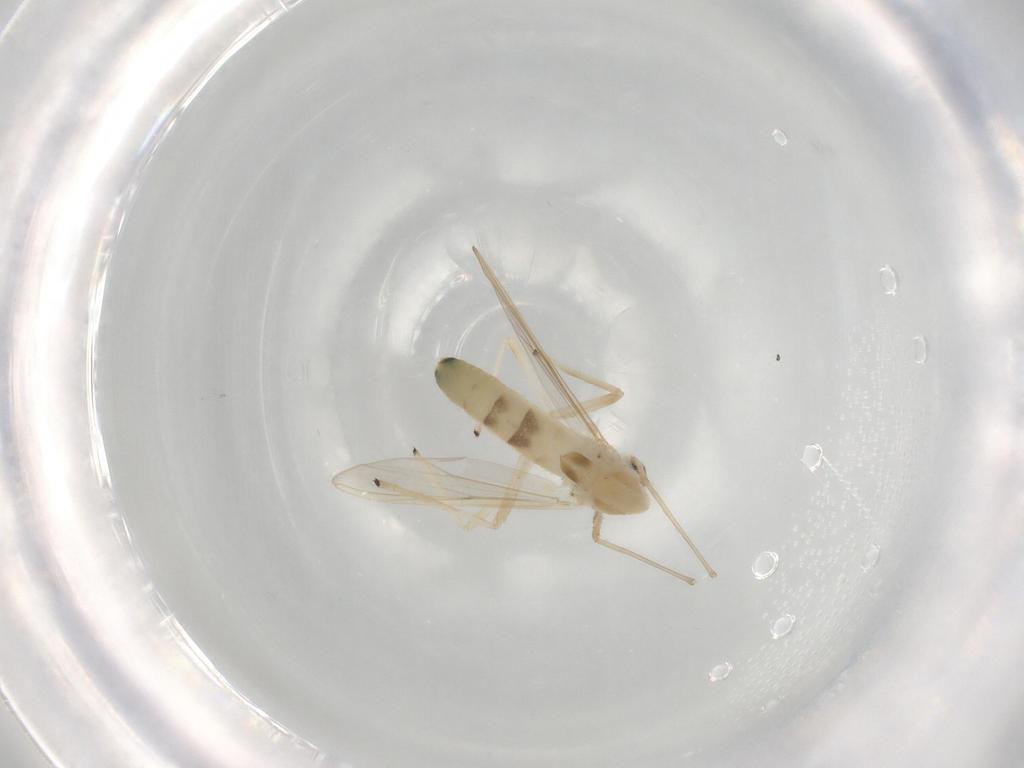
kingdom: Animalia
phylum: Arthropoda
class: Insecta
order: Diptera
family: Chironomidae
